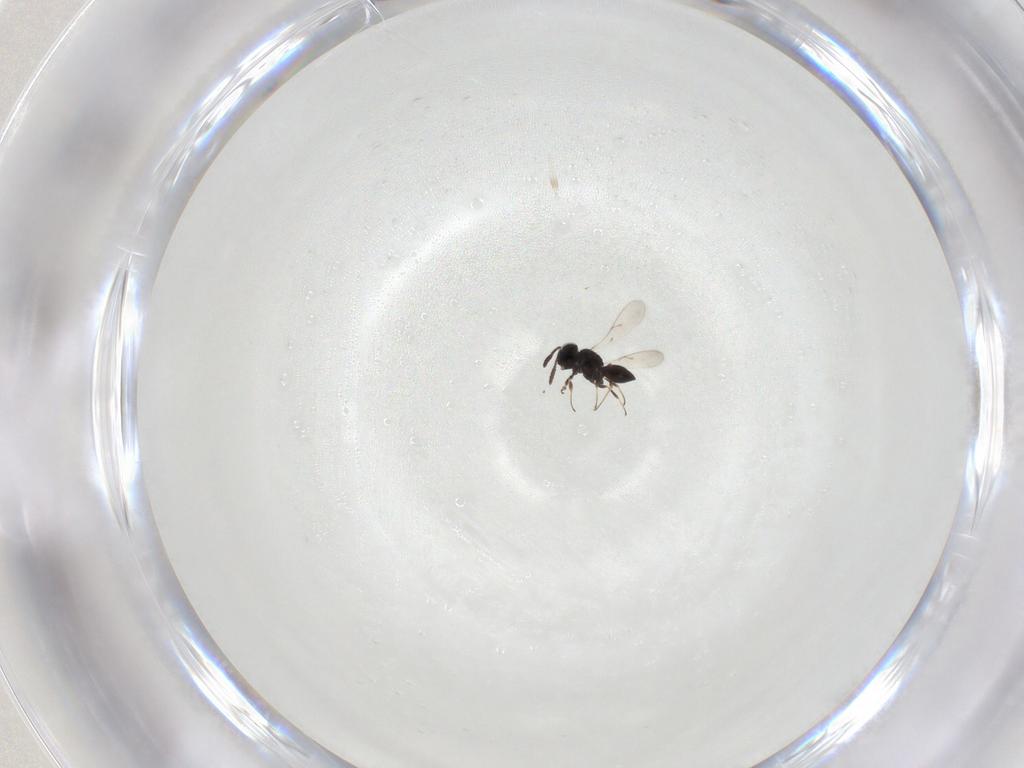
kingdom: Animalia
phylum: Arthropoda
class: Insecta
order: Hymenoptera
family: Scelionidae
